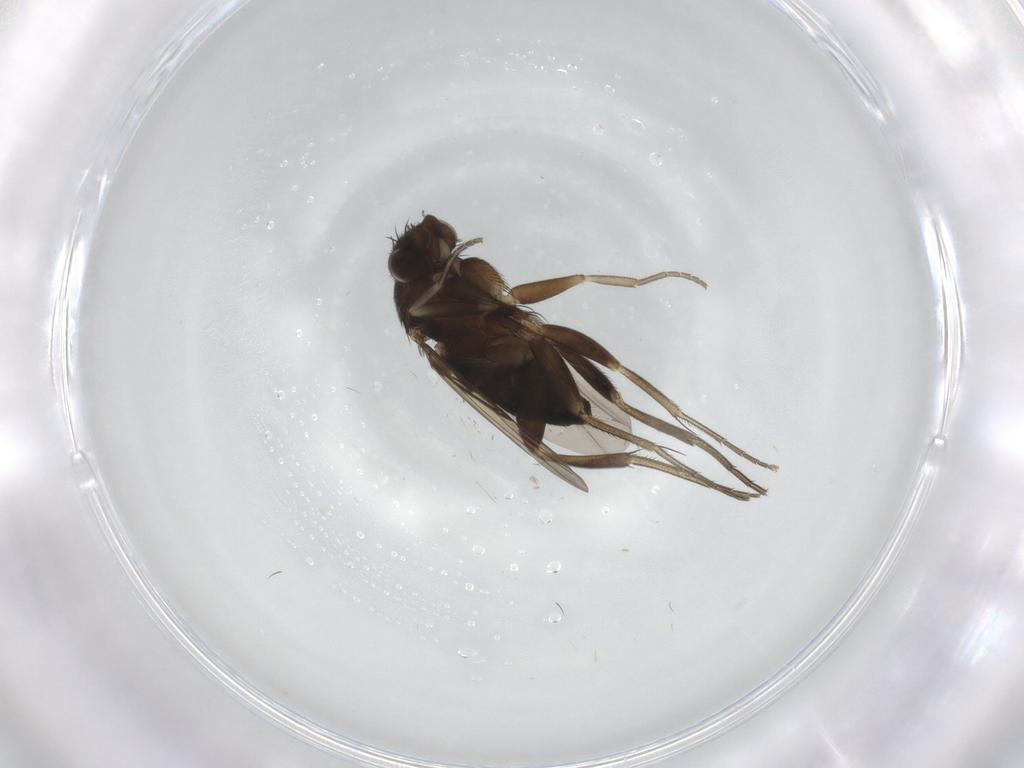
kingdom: Animalia
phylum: Arthropoda
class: Insecta
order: Diptera
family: Phoridae
